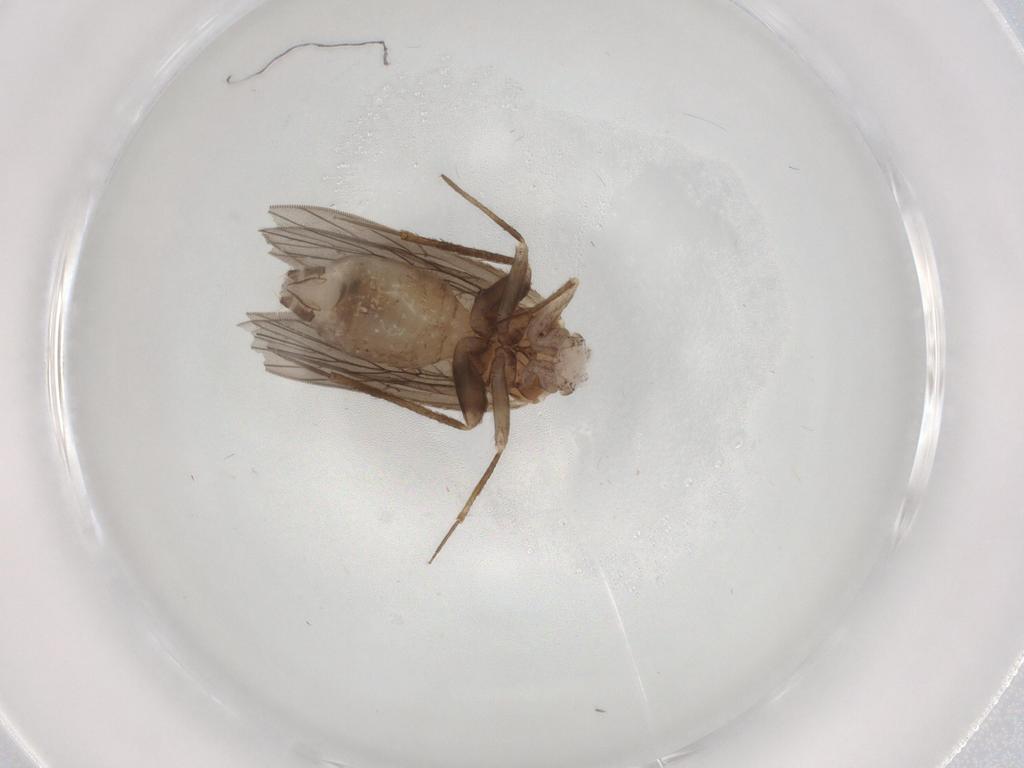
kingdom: Animalia
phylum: Arthropoda
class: Insecta
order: Psocodea
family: Lepidopsocidae
